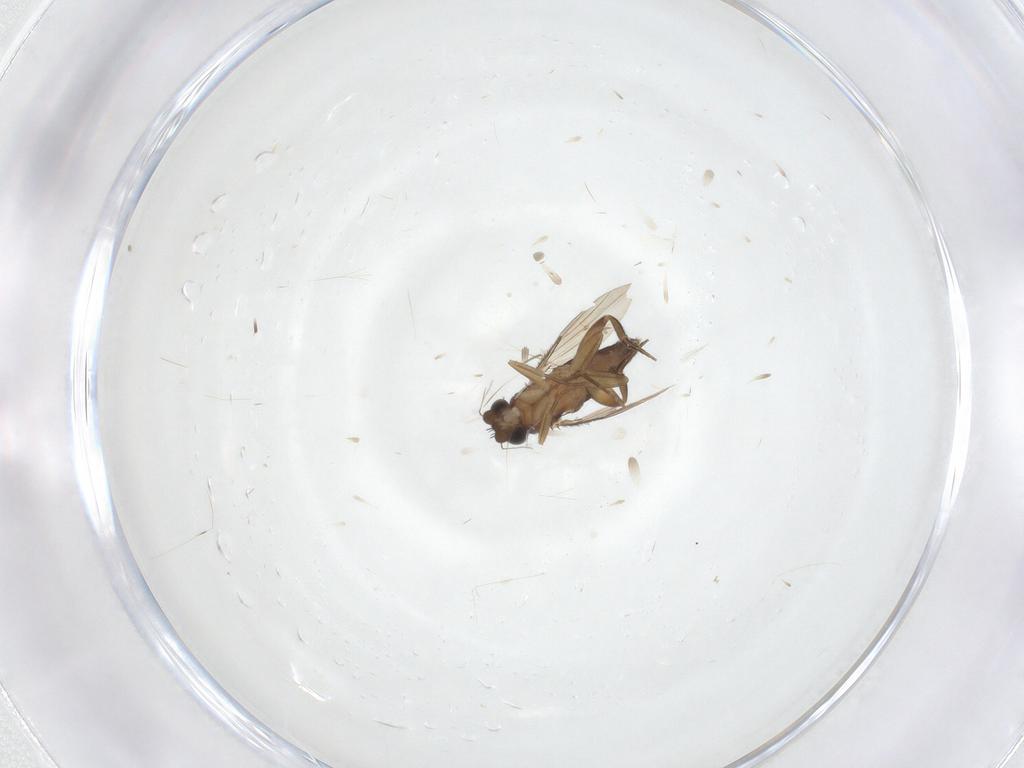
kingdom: Animalia
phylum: Arthropoda
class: Insecta
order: Diptera
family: Phoridae
